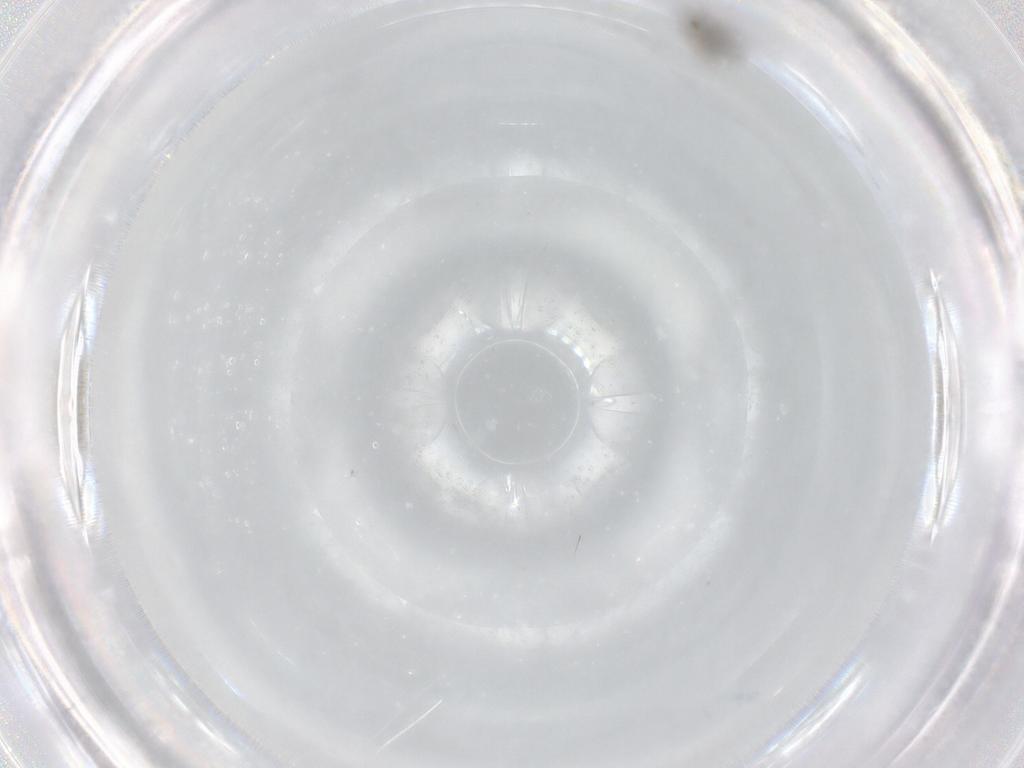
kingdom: Animalia
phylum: Arthropoda
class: Insecta
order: Diptera
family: Cecidomyiidae
